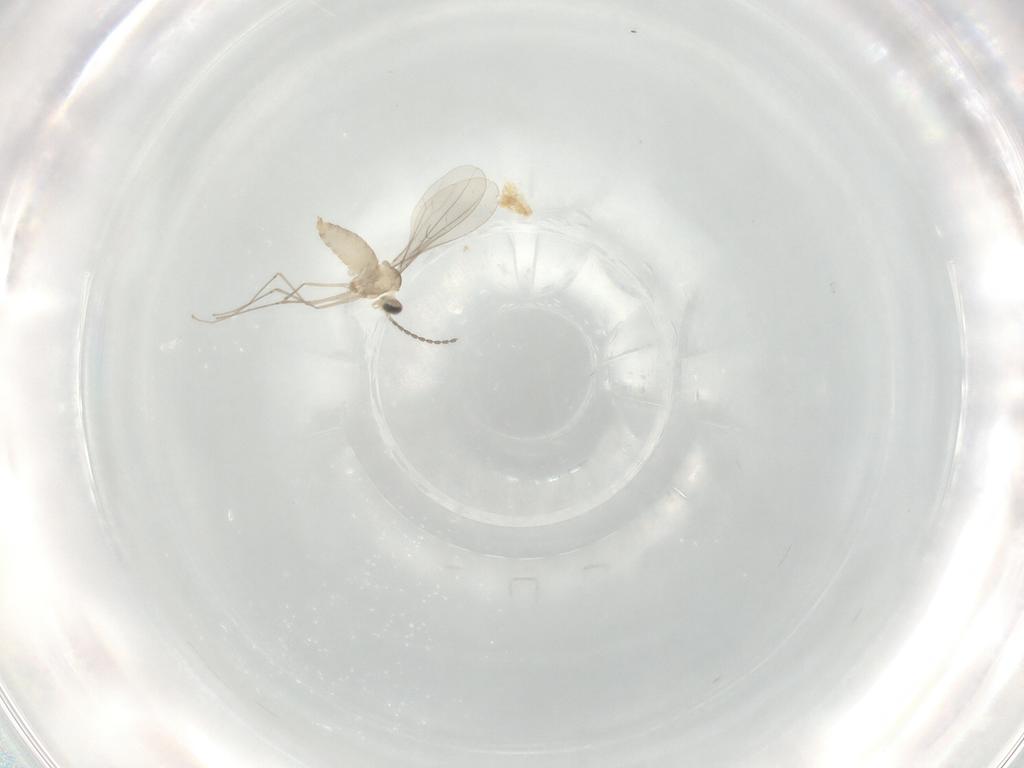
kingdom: Animalia
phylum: Arthropoda
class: Insecta
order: Diptera
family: Cecidomyiidae
